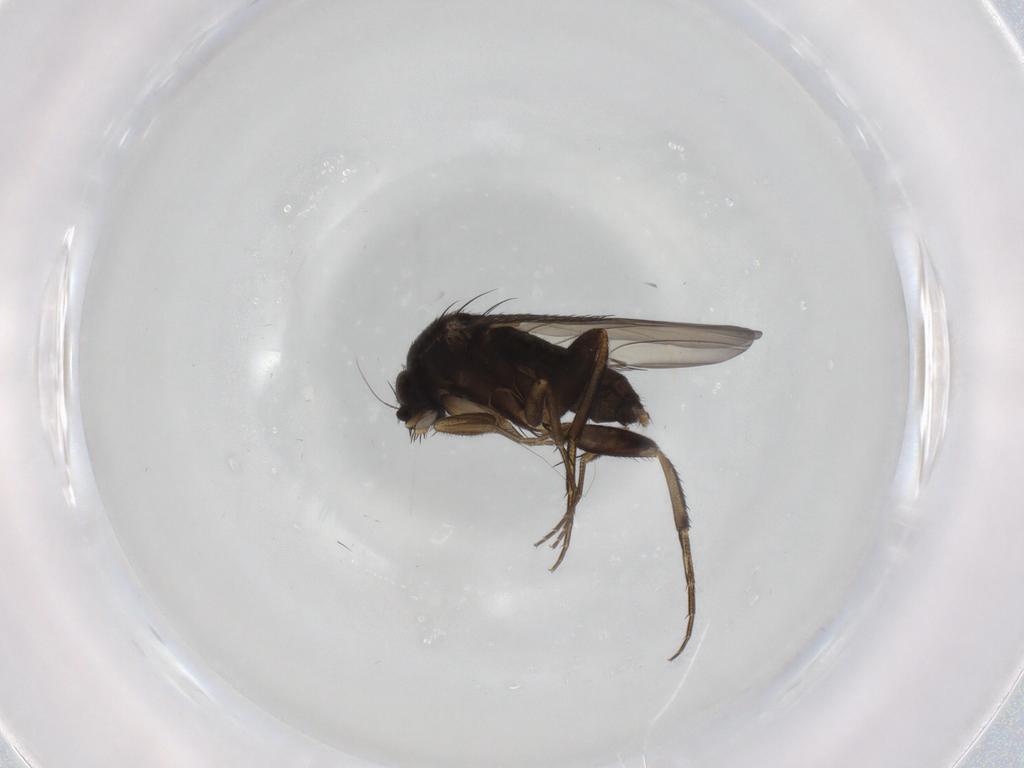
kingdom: Animalia
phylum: Arthropoda
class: Insecta
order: Diptera
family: Phoridae
